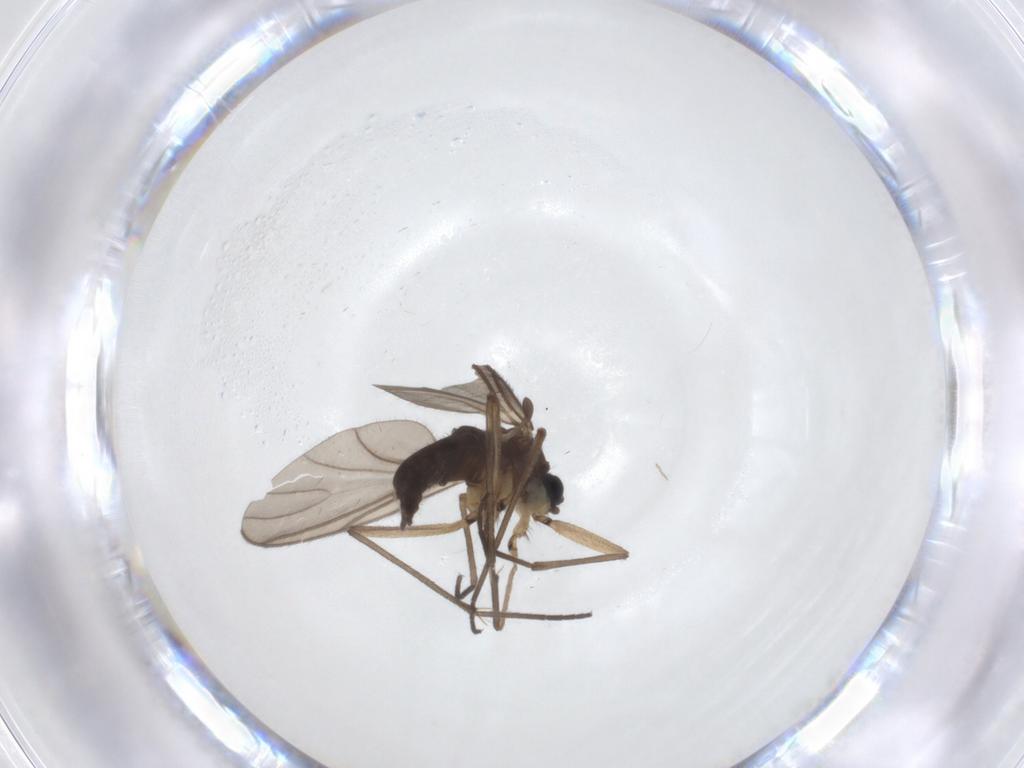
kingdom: Animalia
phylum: Arthropoda
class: Insecta
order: Diptera
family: Sciaridae
